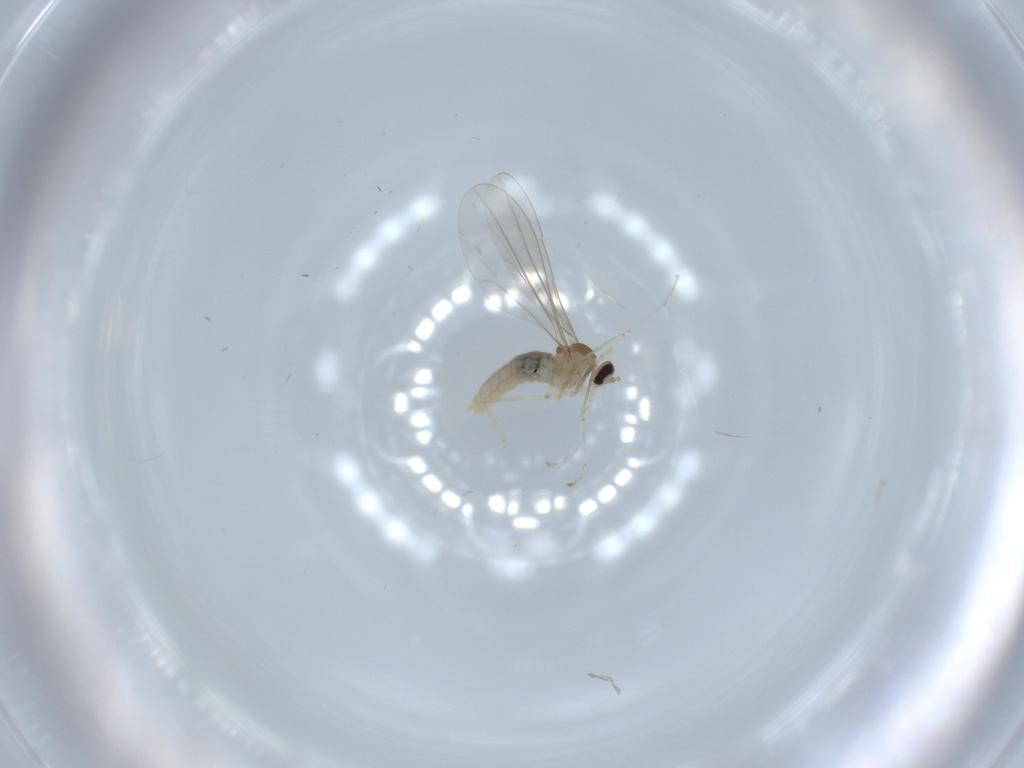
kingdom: Animalia
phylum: Arthropoda
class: Insecta
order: Diptera
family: Cecidomyiidae
